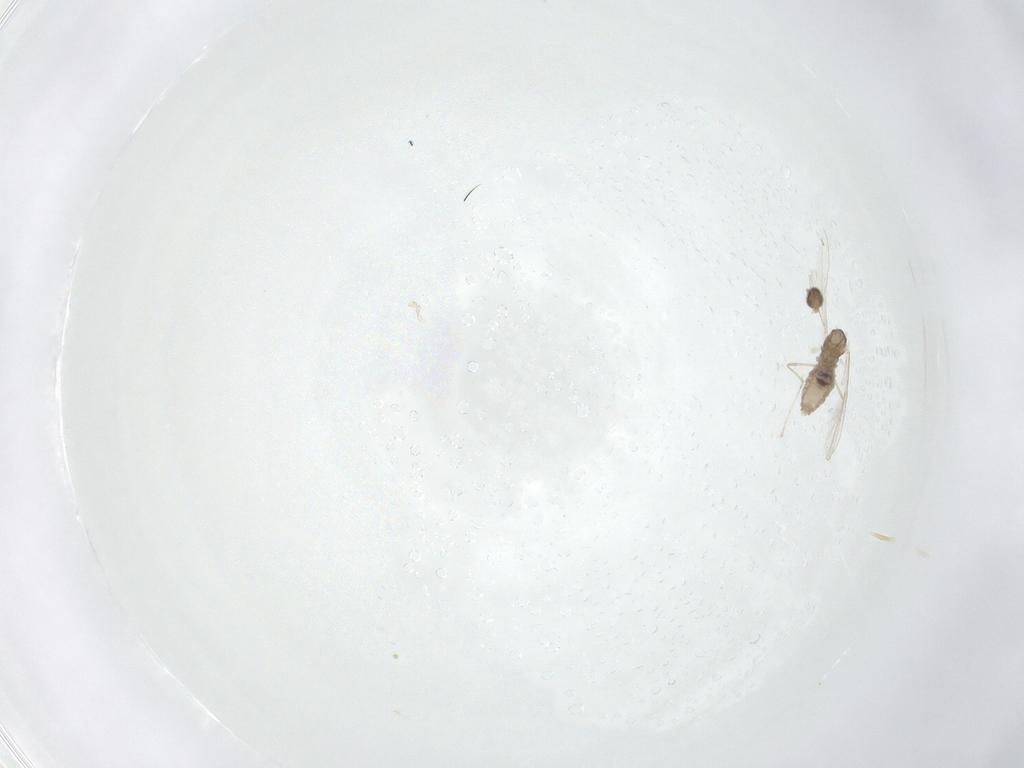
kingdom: Animalia
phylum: Arthropoda
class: Insecta
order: Diptera
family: Cecidomyiidae
